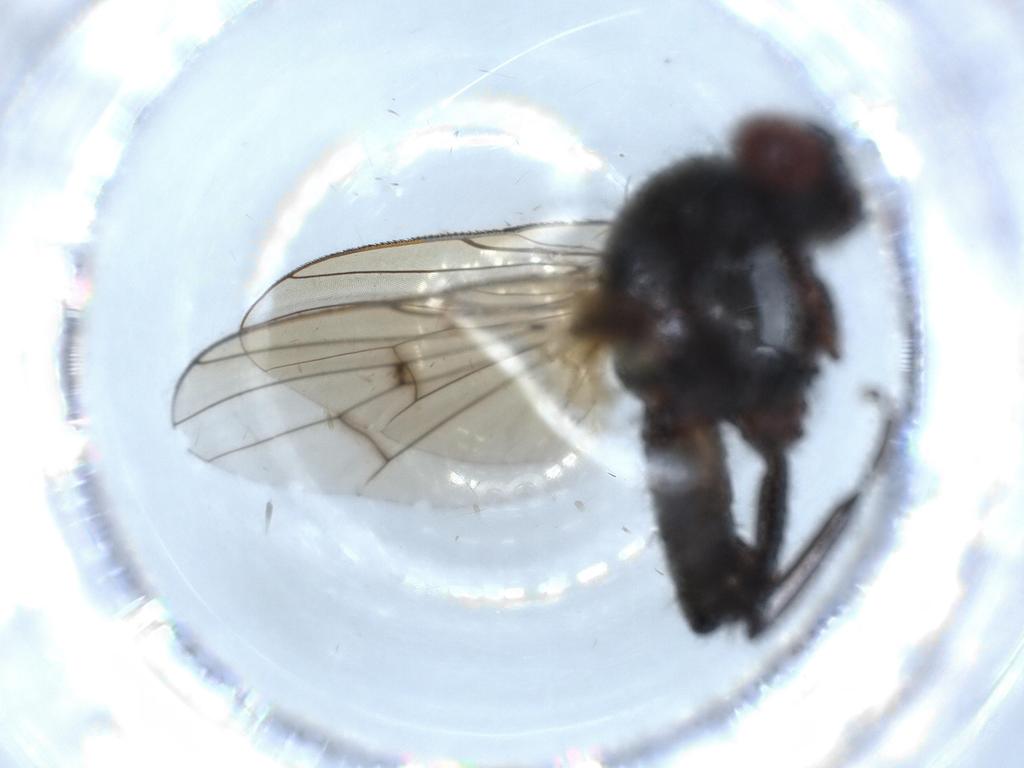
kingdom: Animalia
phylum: Arthropoda
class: Insecta
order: Diptera
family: Anthomyiidae
